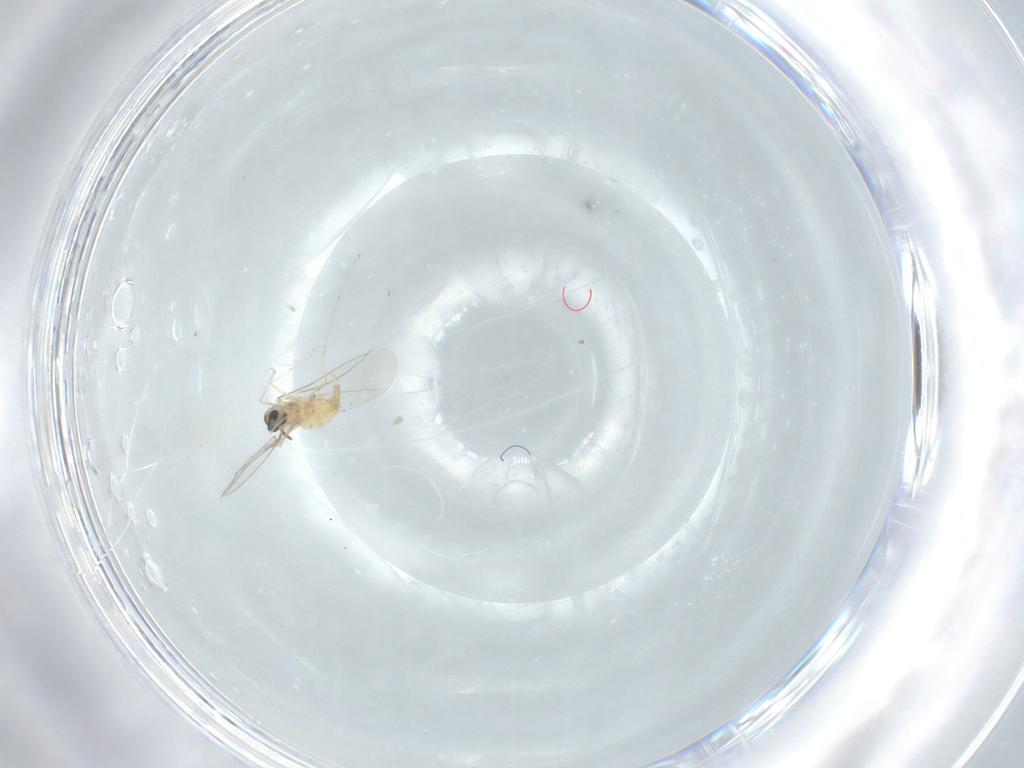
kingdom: Animalia
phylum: Arthropoda
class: Insecta
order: Diptera
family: Cecidomyiidae
